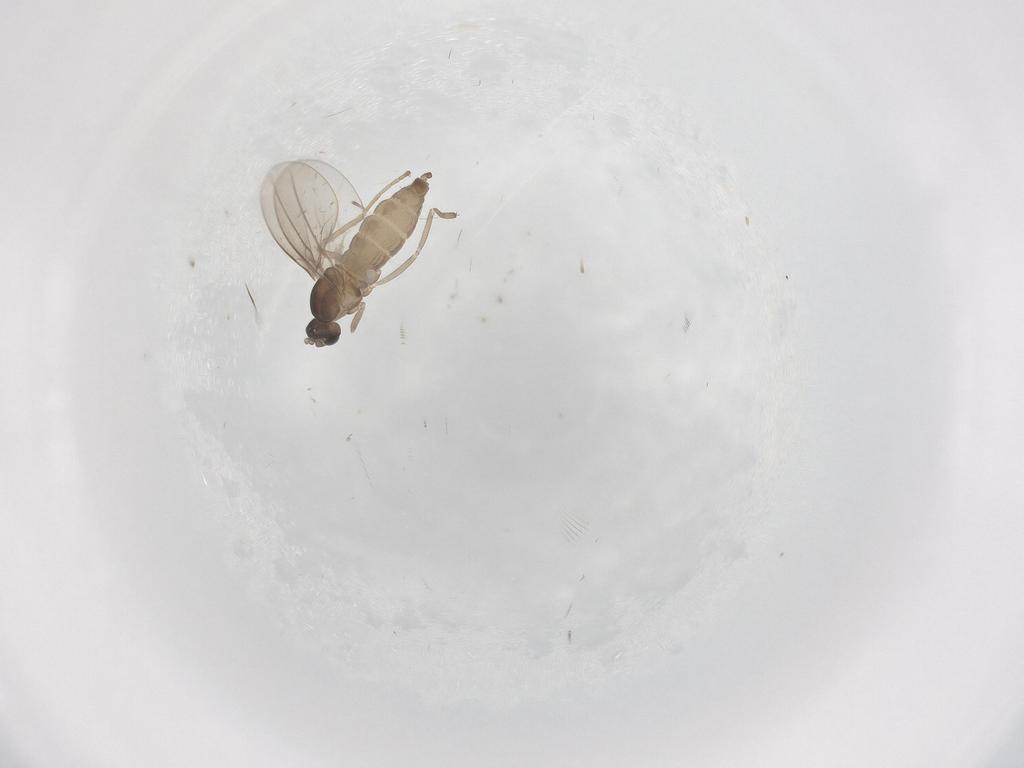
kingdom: Animalia
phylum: Arthropoda
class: Insecta
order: Diptera
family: Cecidomyiidae
